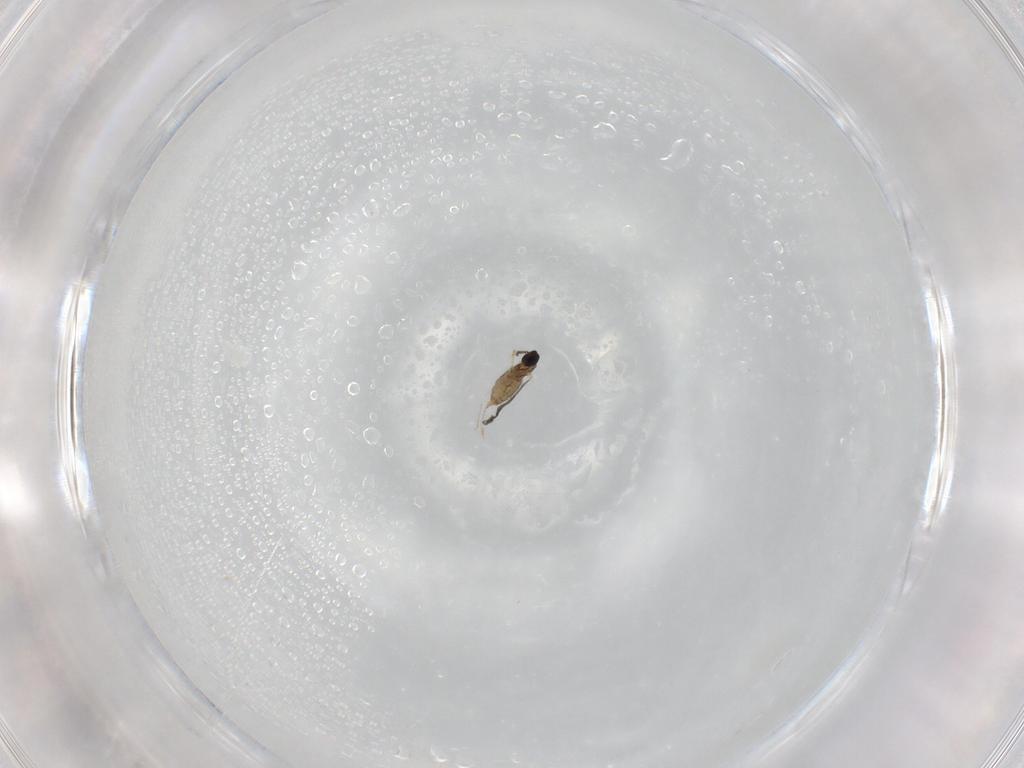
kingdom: Animalia
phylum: Arthropoda
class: Insecta
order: Diptera
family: Cecidomyiidae
